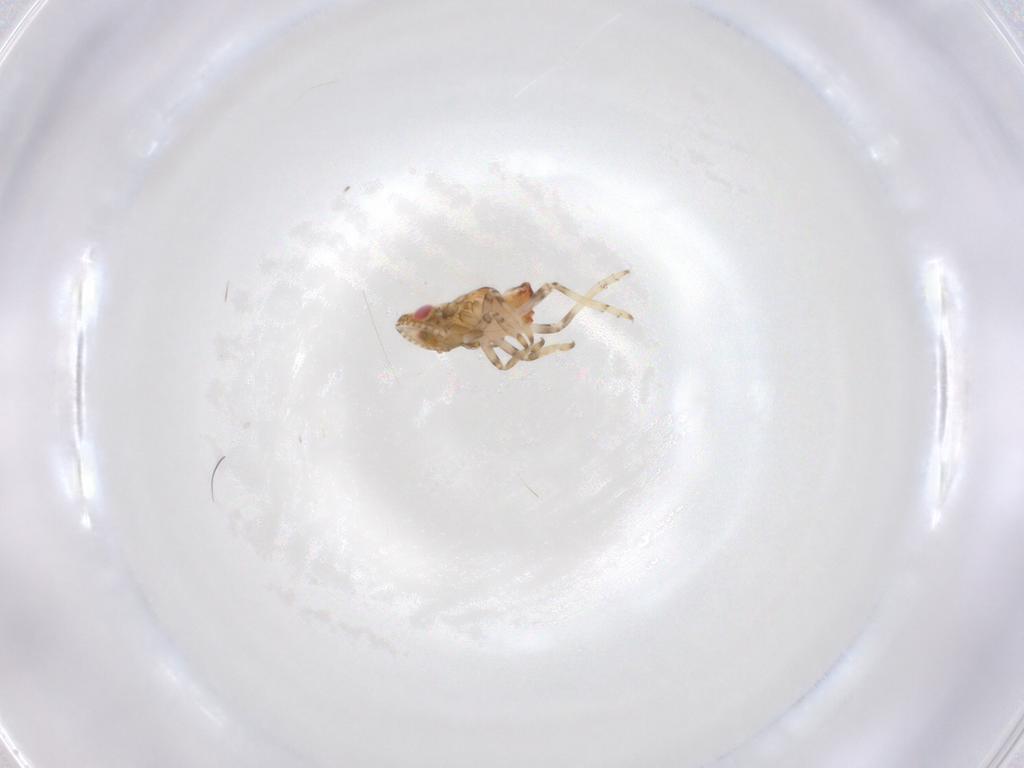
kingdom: Animalia
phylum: Arthropoda
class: Insecta
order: Hemiptera
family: Tropiduchidae
